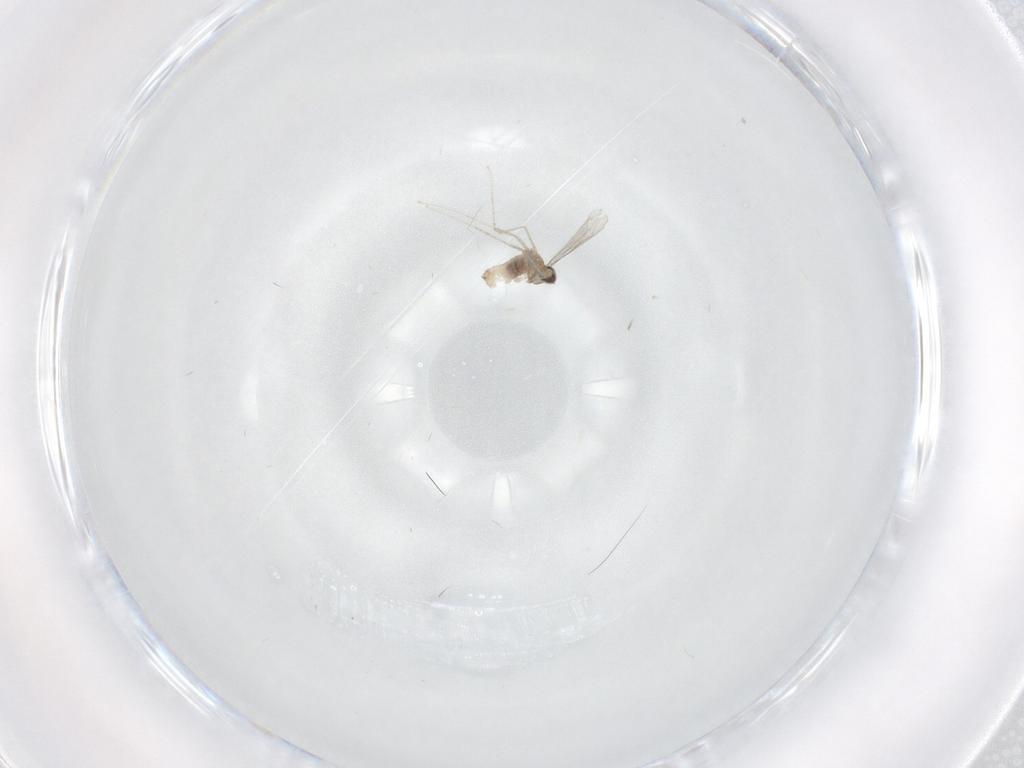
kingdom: Animalia
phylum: Arthropoda
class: Insecta
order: Diptera
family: Cecidomyiidae
